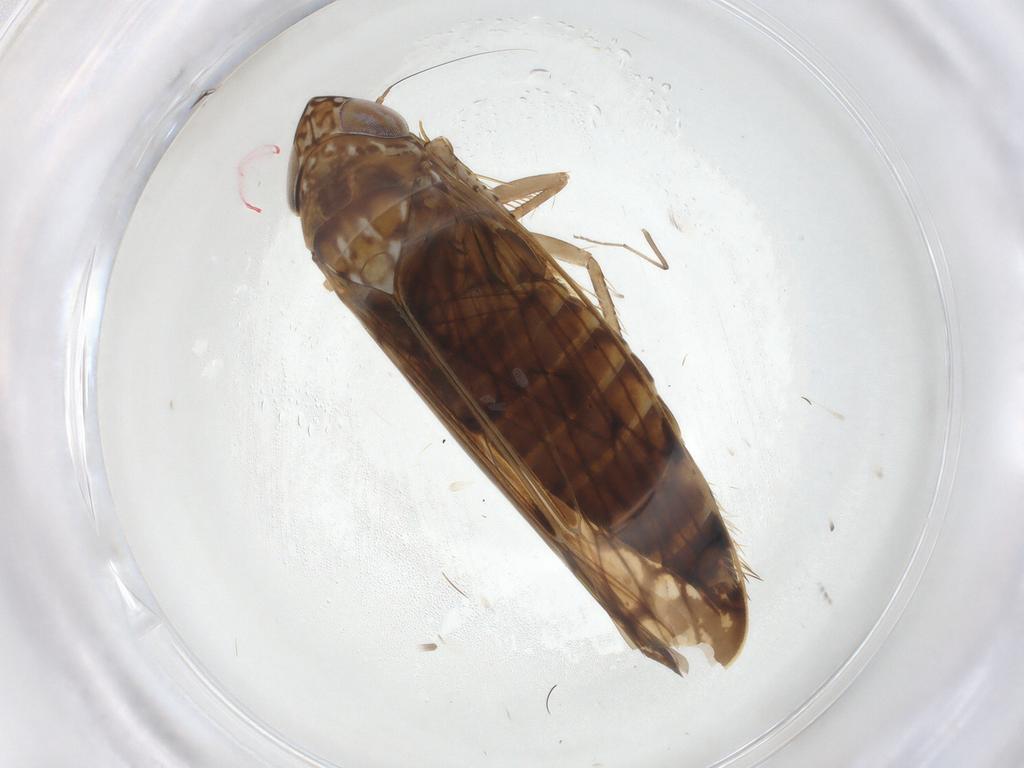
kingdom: Animalia
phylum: Arthropoda
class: Insecta
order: Hemiptera
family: Cicadellidae
